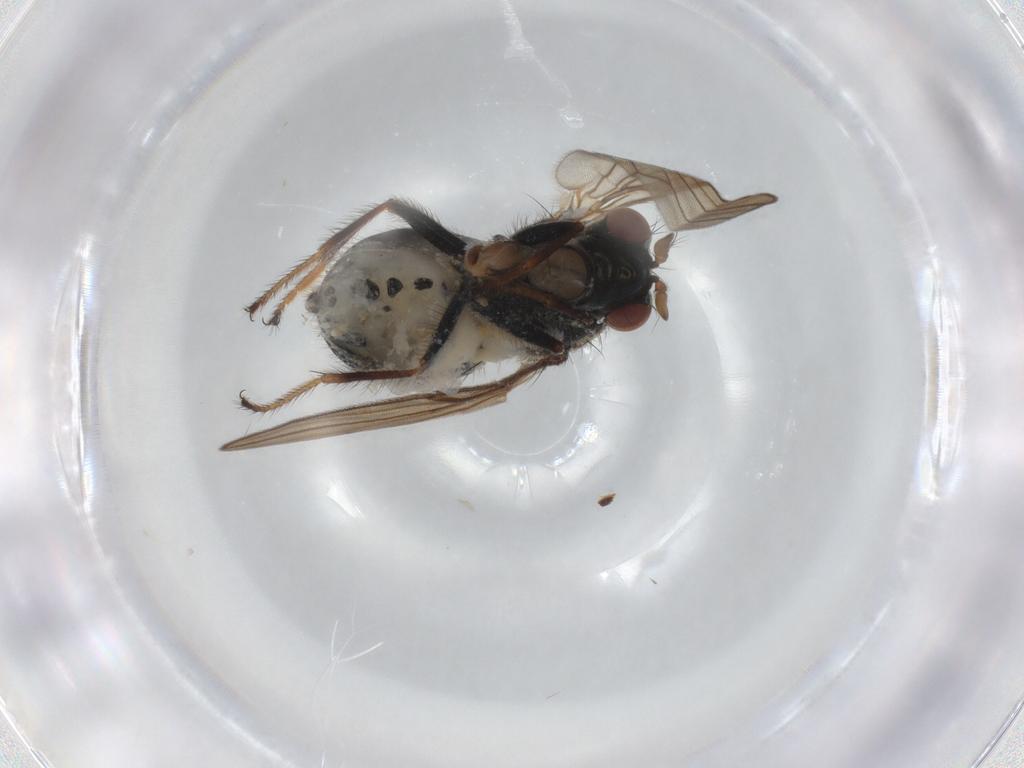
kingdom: Animalia
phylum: Arthropoda
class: Insecta
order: Diptera
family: Ephydridae
